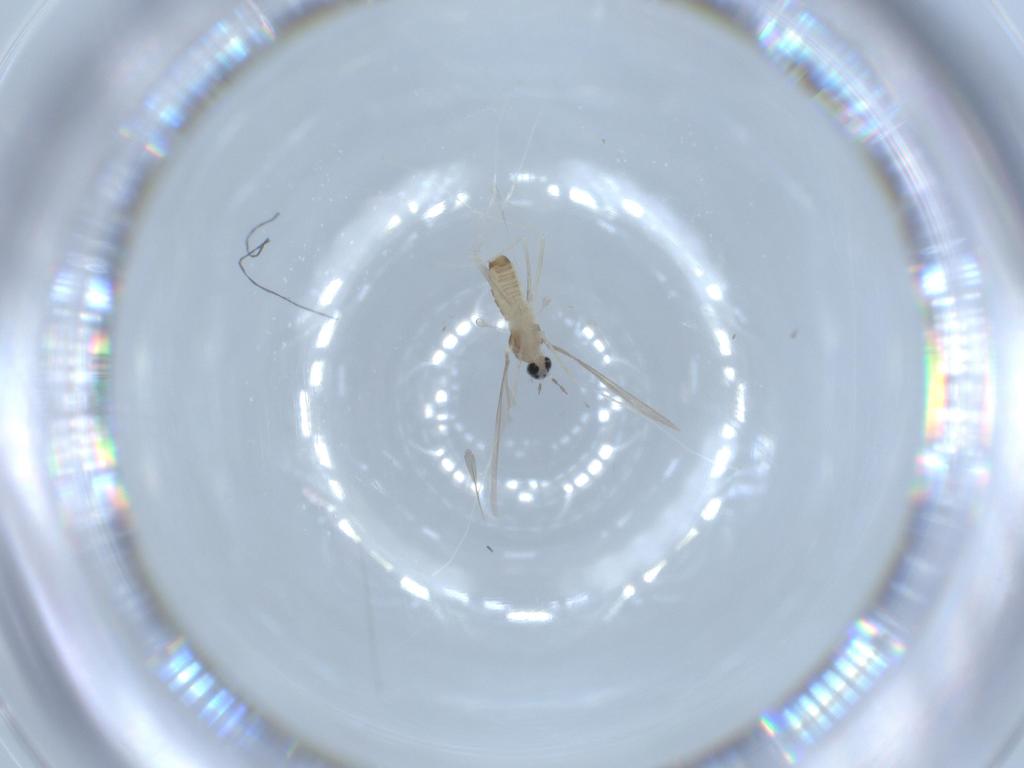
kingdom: Animalia
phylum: Arthropoda
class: Insecta
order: Diptera
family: Cecidomyiidae
